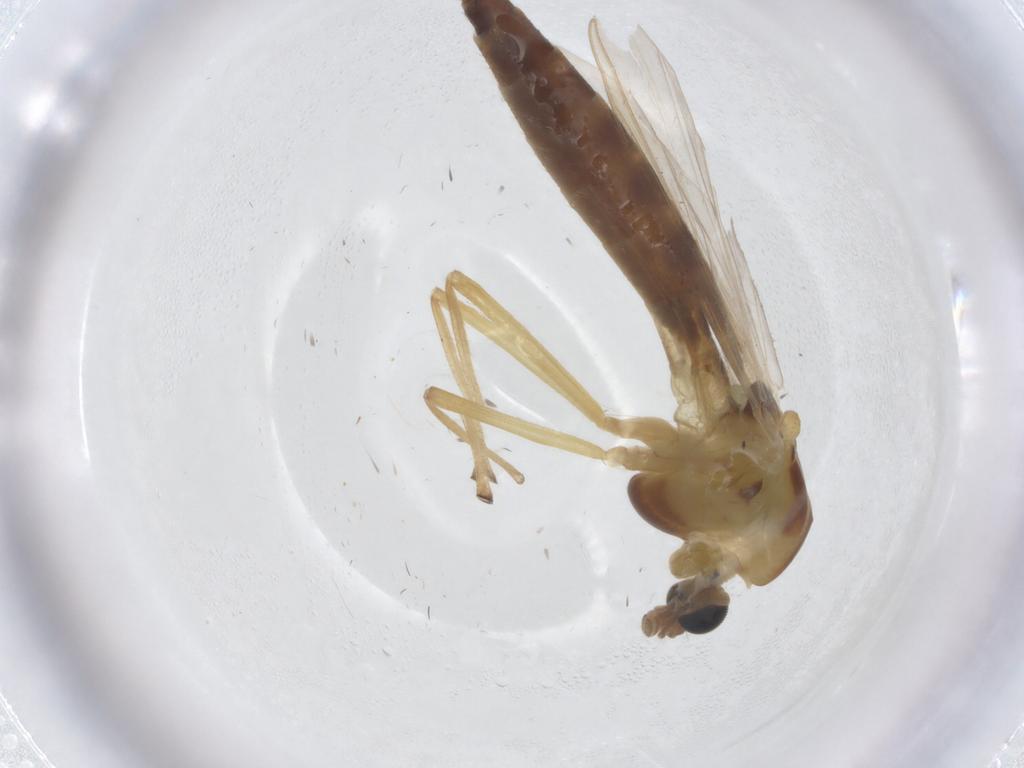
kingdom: Animalia
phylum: Arthropoda
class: Insecta
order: Diptera
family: Chironomidae
